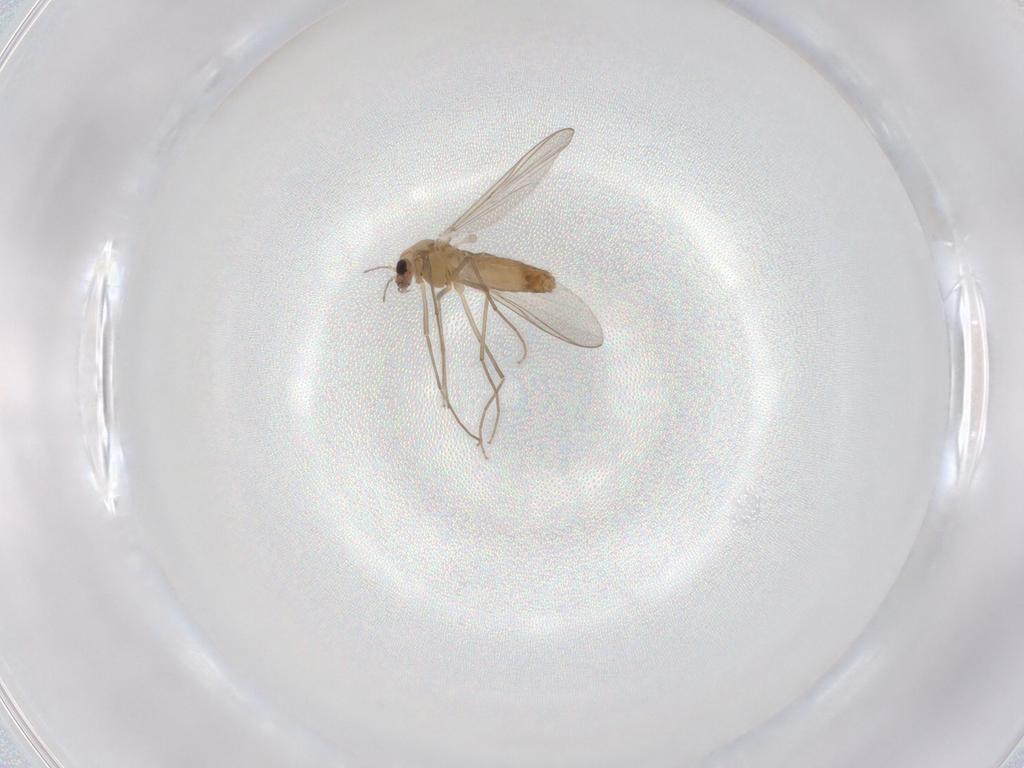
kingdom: Animalia
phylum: Arthropoda
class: Insecta
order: Diptera
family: Chironomidae
